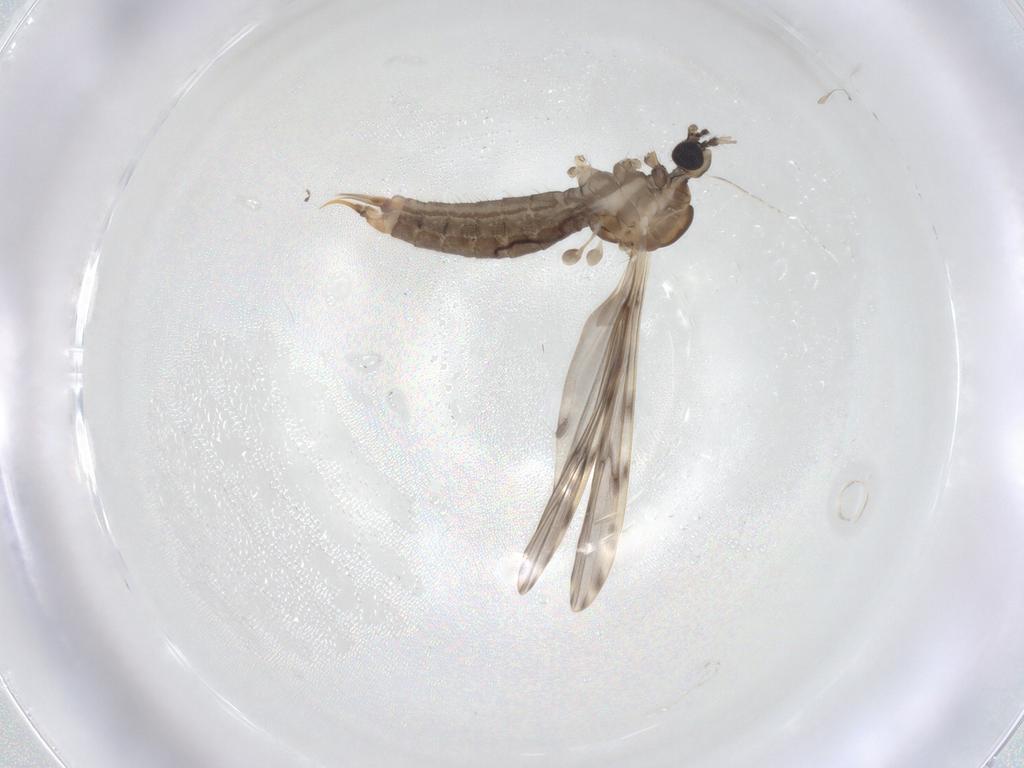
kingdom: Animalia
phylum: Arthropoda
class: Insecta
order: Diptera
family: Limoniidae
